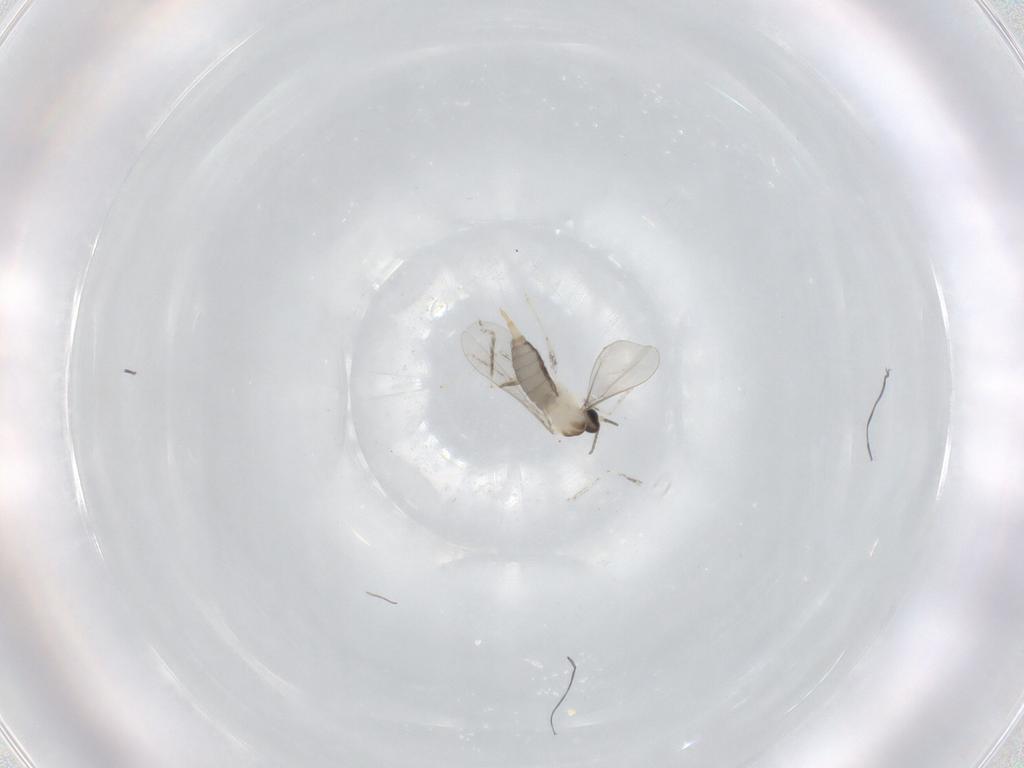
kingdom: Animalia
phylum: Arthropoda
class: Insecta
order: Diptera
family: Cecidomyiidae
